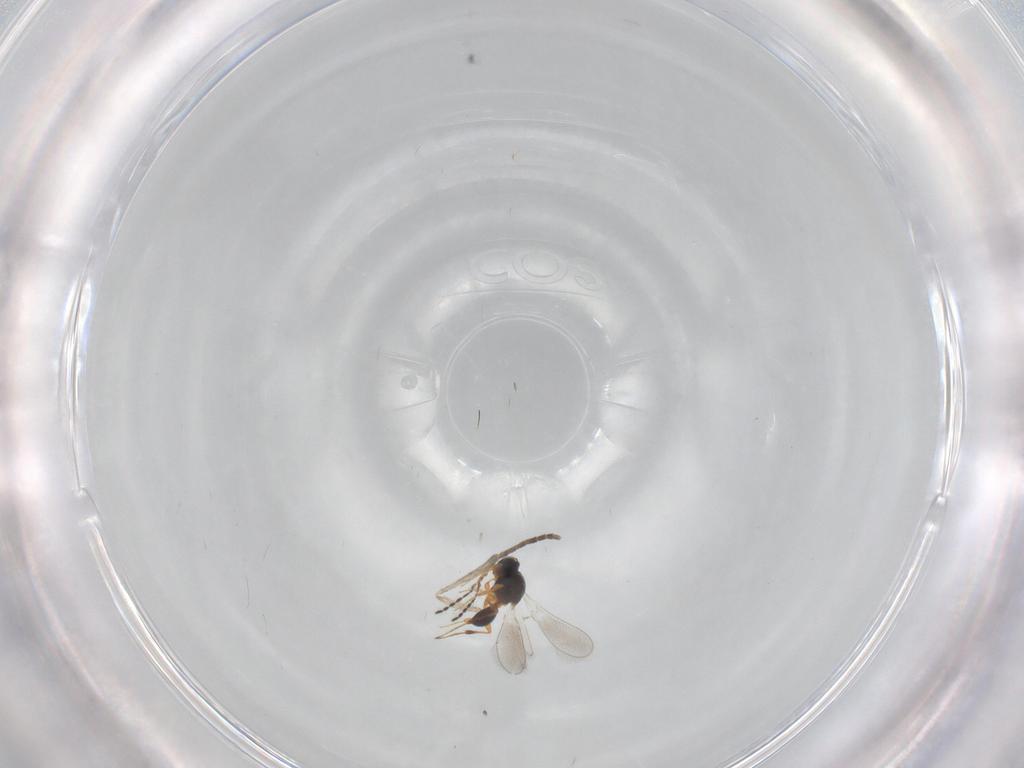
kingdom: Animalia
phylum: Arthropoda
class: Insecta
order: Hymenoptera
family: Platygastridae
